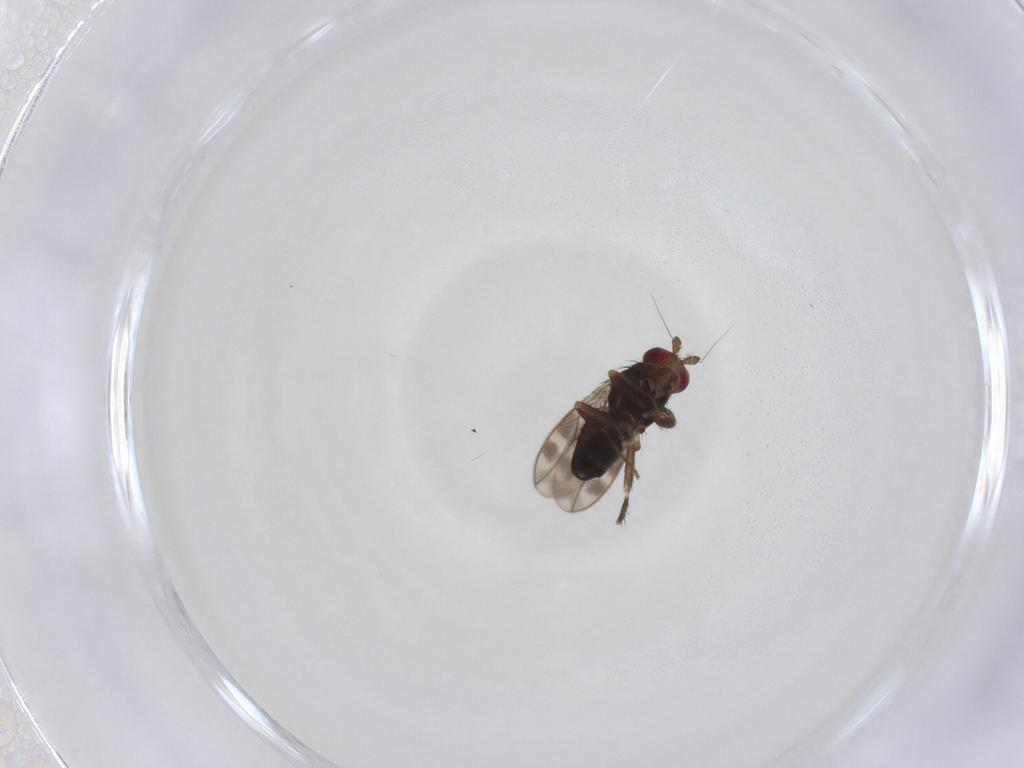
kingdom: Animalia
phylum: Arthropoda
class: Insecta
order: Diptera
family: Sphaeroceridae
